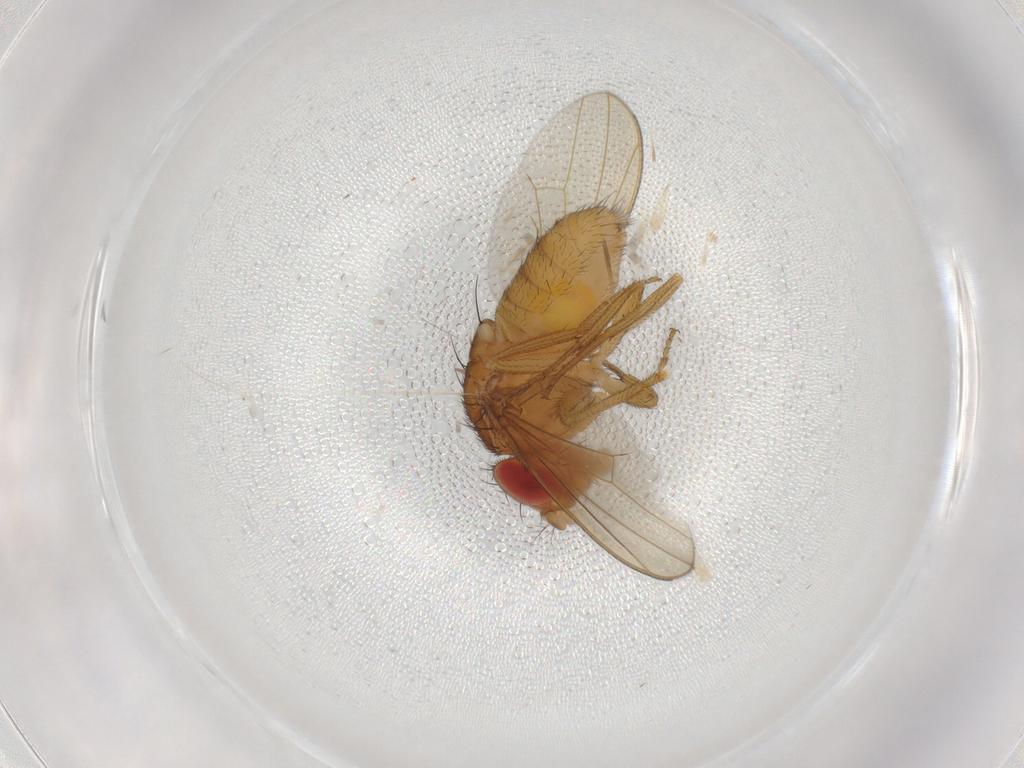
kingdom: Animalia
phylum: Arthropoda
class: Insecta
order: Diptera
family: Drosophilidae
